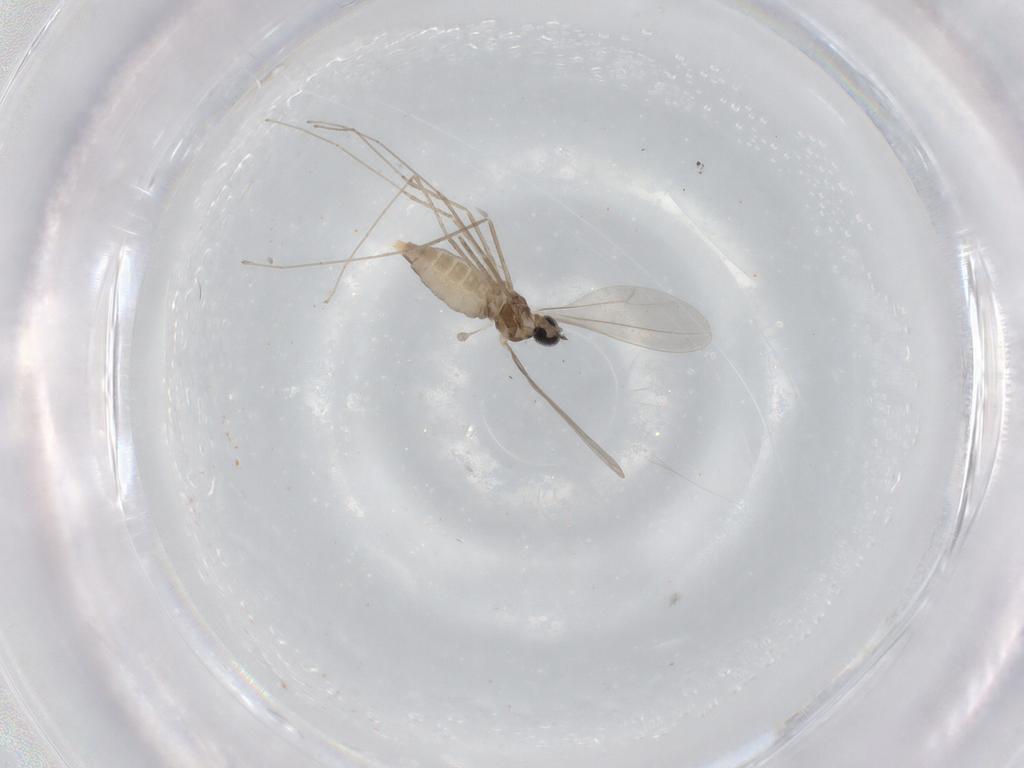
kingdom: Animalia
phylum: Arthropoda
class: Insecta
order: Diptera
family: Cecidomyiidae
